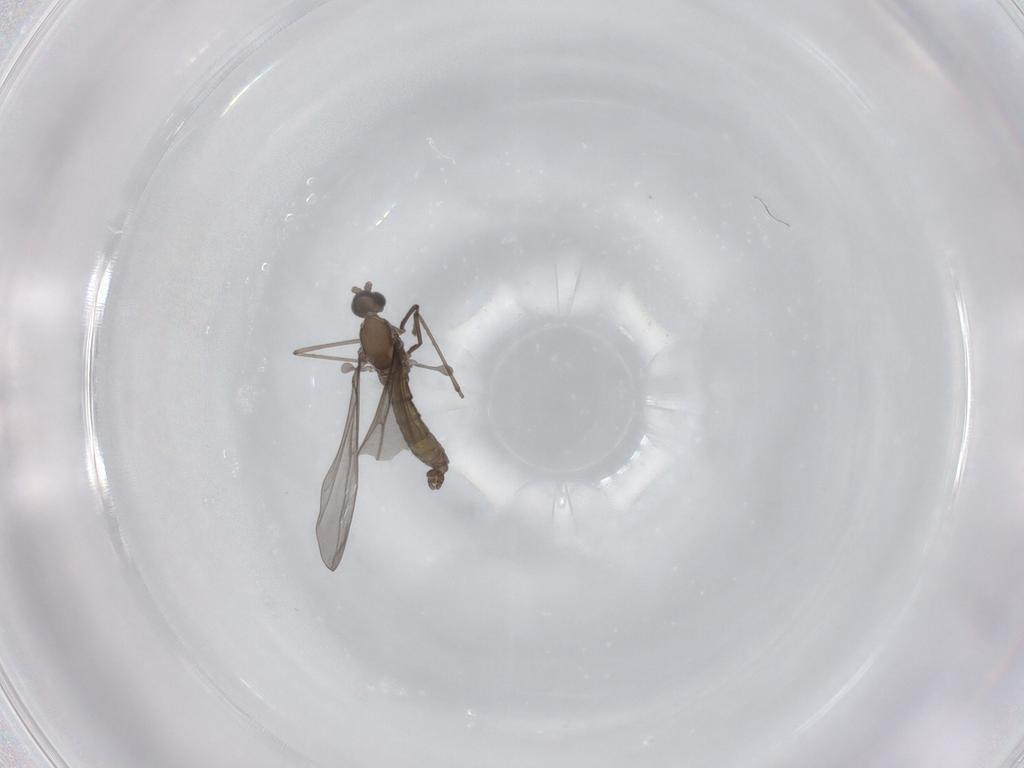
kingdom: Animalia
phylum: Arthropoda
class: Insecta
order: Diptera
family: Cecidomyiidae
